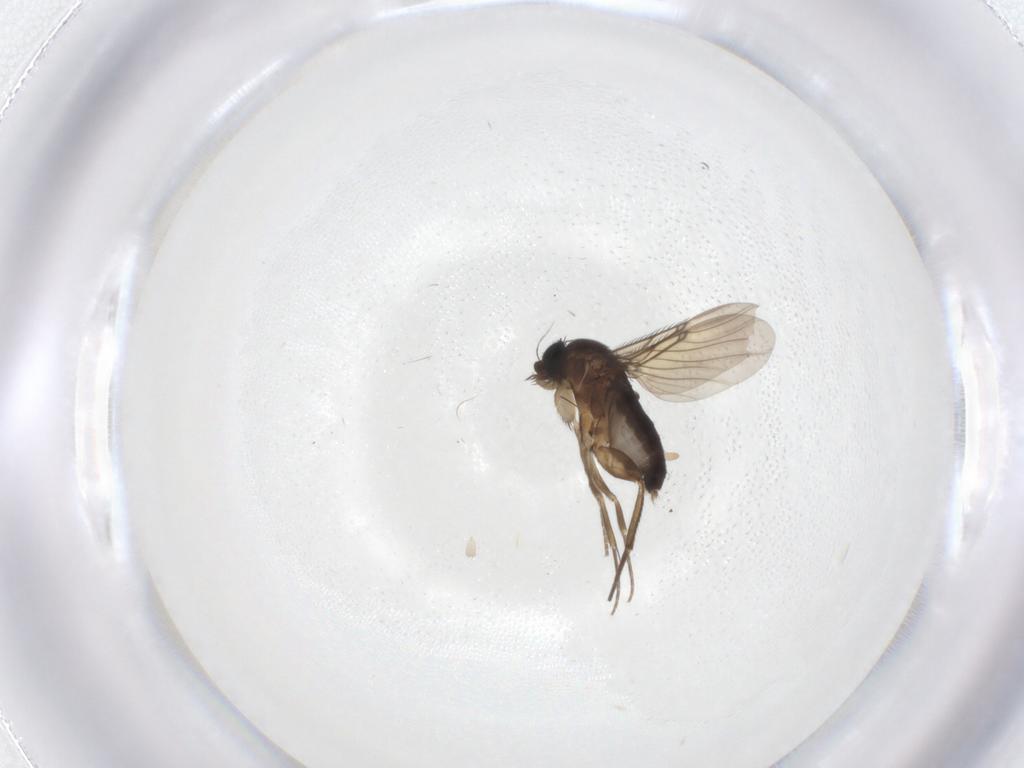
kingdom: Animalia
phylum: Arthropoda
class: Insecta
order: Diptera
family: Phoridae
